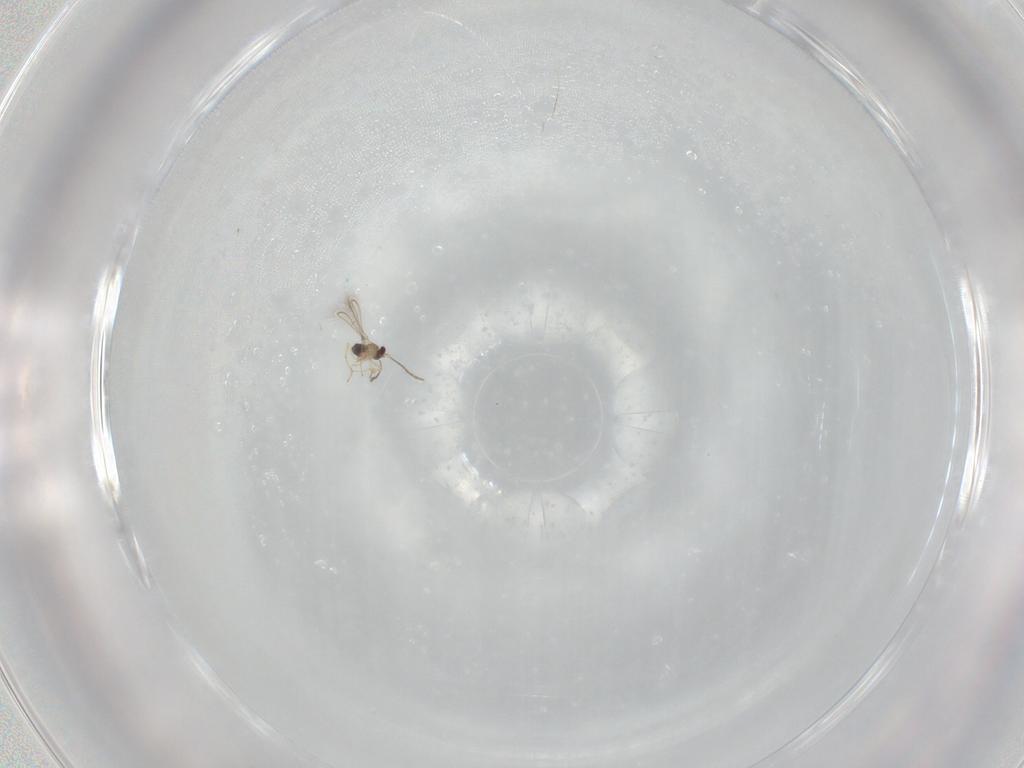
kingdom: Animalia
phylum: Arthropoda
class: Insecta
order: Hymenoptera
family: Mymaridae
